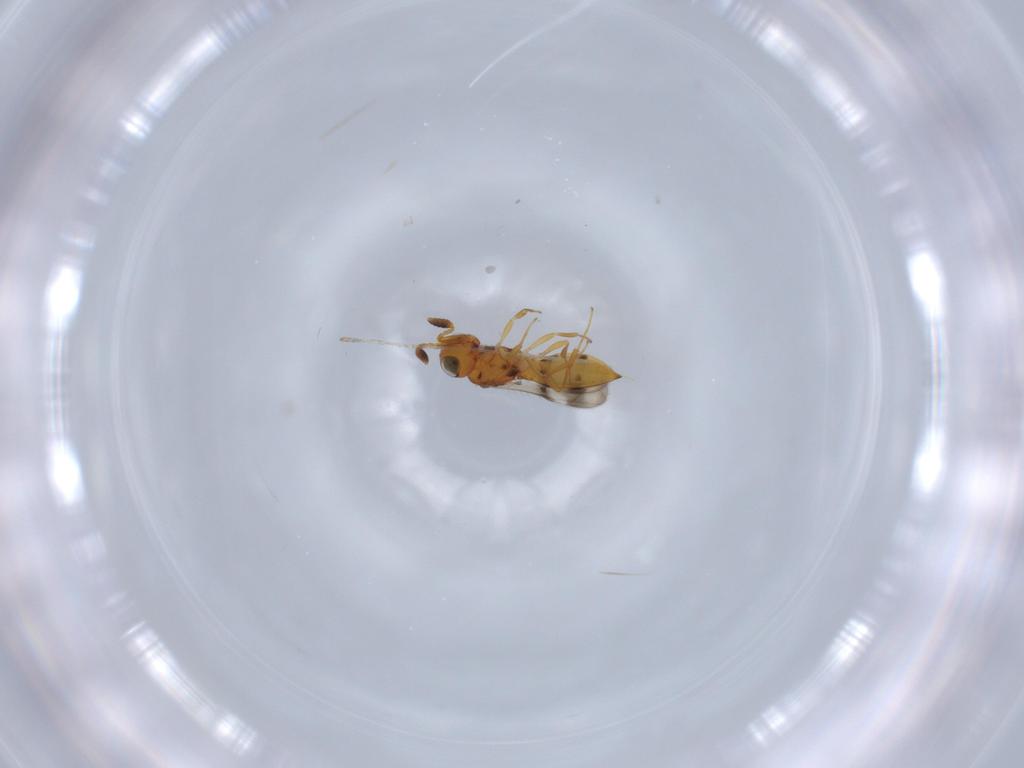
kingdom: Animalia
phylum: Arthropoda
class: Insecta
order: Hymenoptera
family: Scelionidae
